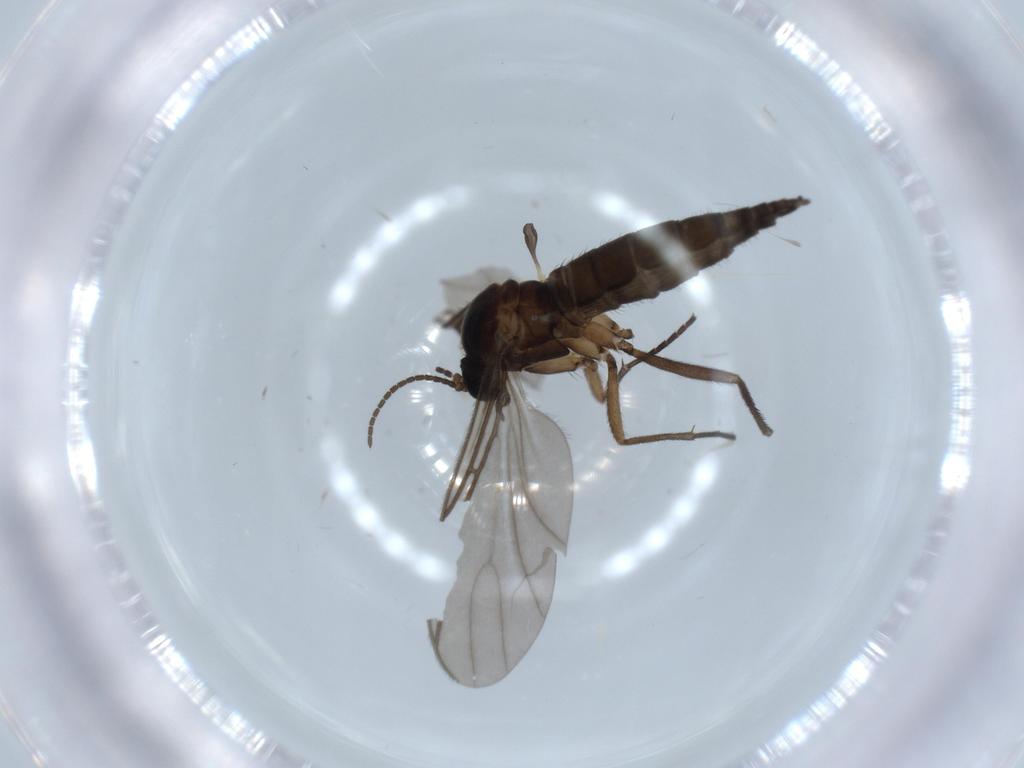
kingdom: Animalia
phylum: Arthropoda
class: Insecta
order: Diptera
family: Sciaridae
